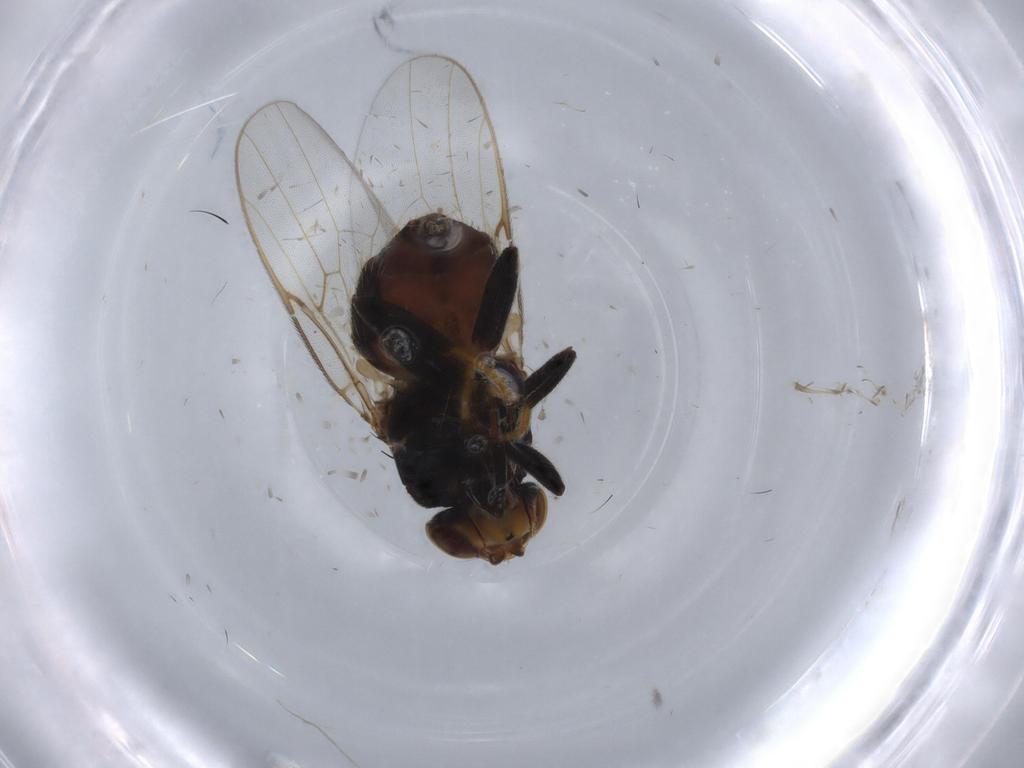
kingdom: Animalia
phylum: Arthropoda
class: Insecta
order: Diptera
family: Chloropidae
